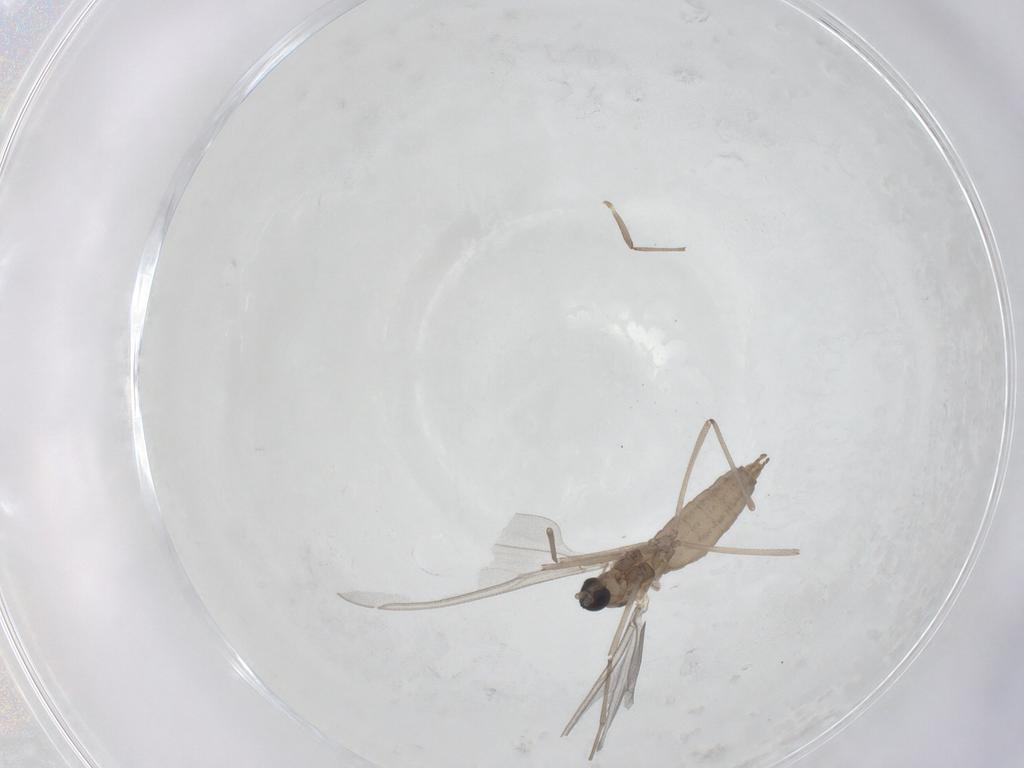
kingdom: Animalia
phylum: Arthropoda
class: Insecta
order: Diptera
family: Cecidomyiidae
